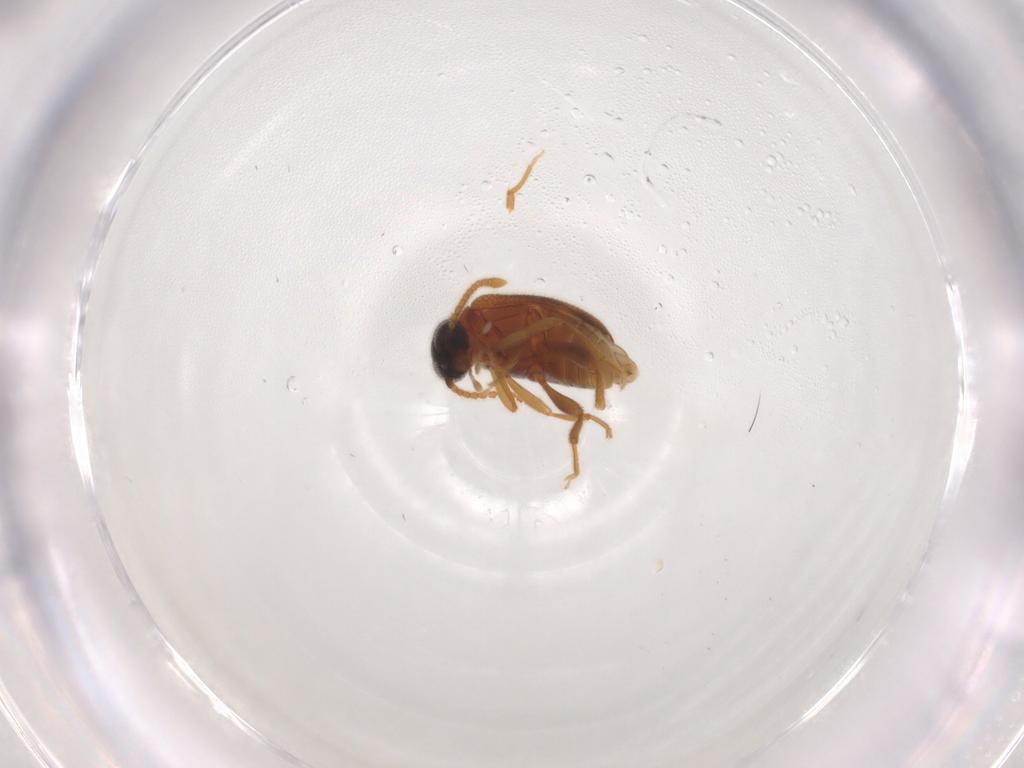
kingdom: Animalia
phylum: Arthropoda
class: Insecta
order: Coleoptera
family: Aderidae
